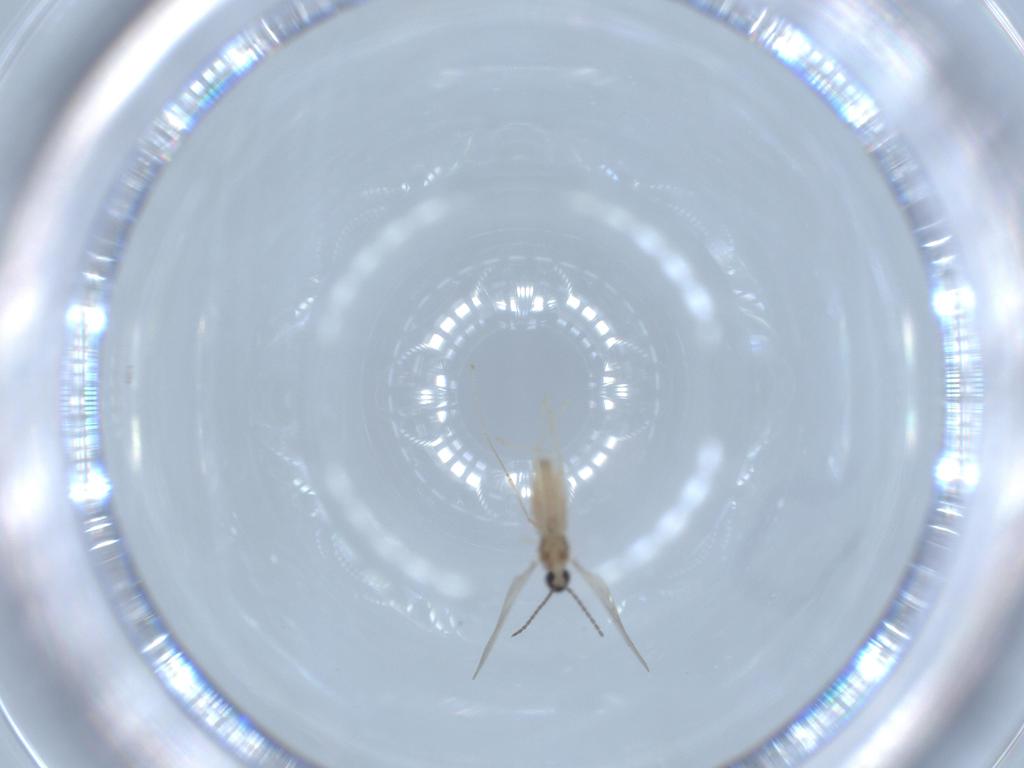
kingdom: Animalia
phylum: Arthropoda
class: Insecta
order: Diptera
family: Cecidomyiidae
